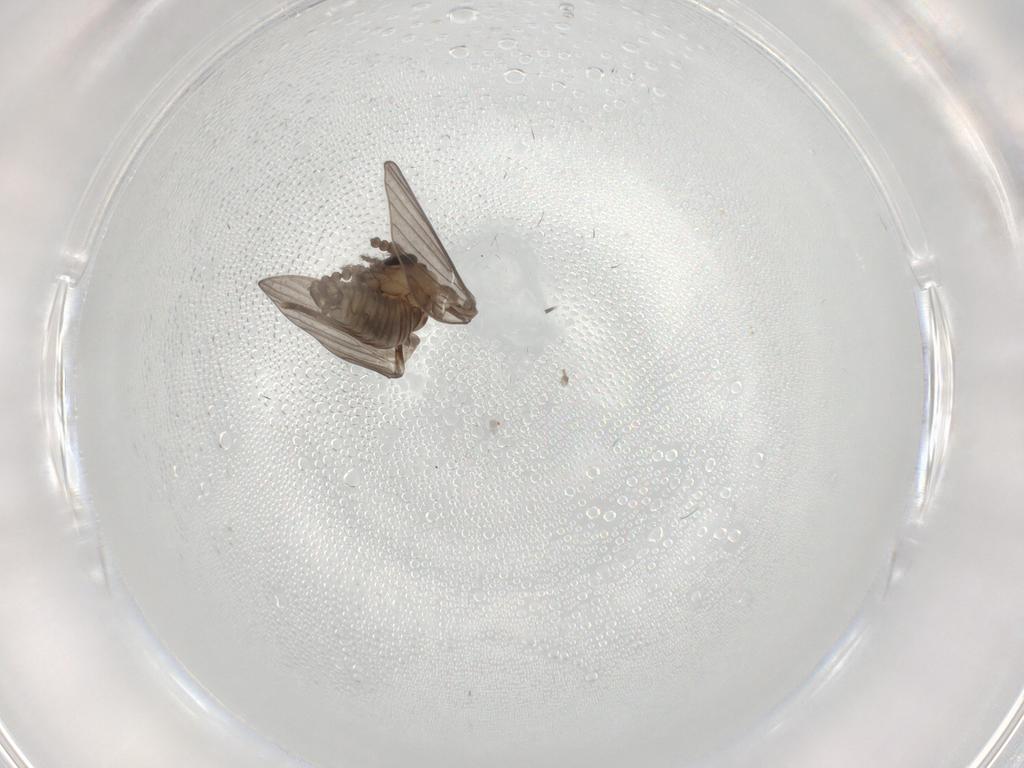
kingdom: Animalia
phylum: Arthropoda
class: Insecta
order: Diptera
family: Psychodidae
